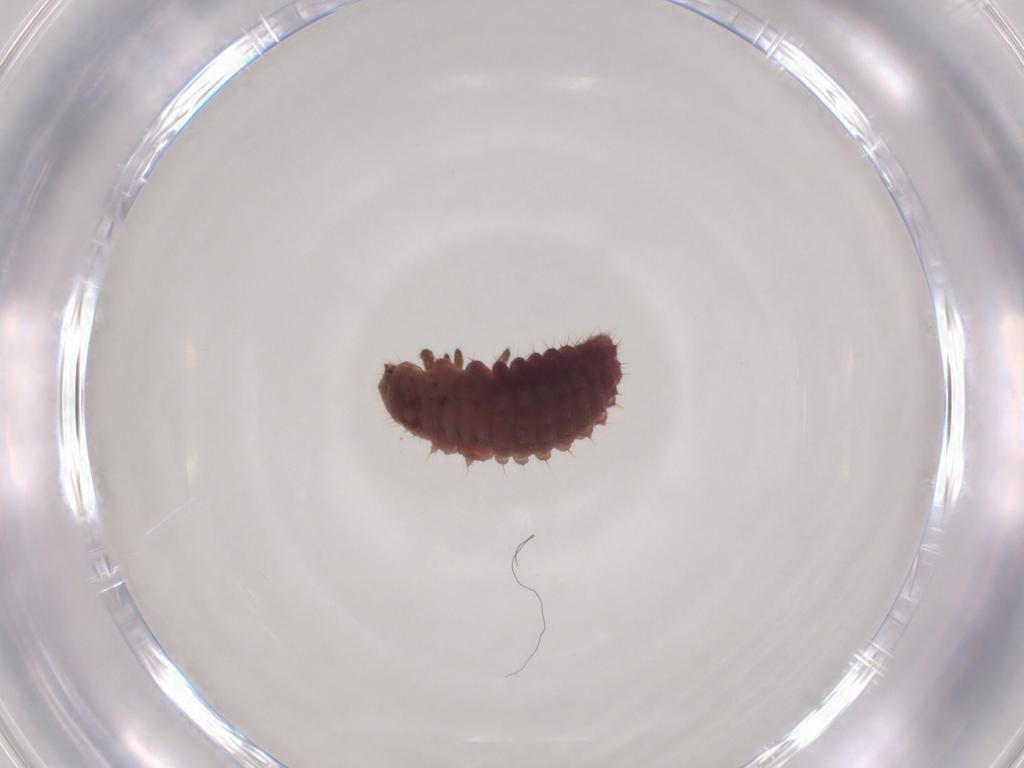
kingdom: Animalia
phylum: Arthropoda
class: Insecta
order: Coleoptera
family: Coccinellidae
